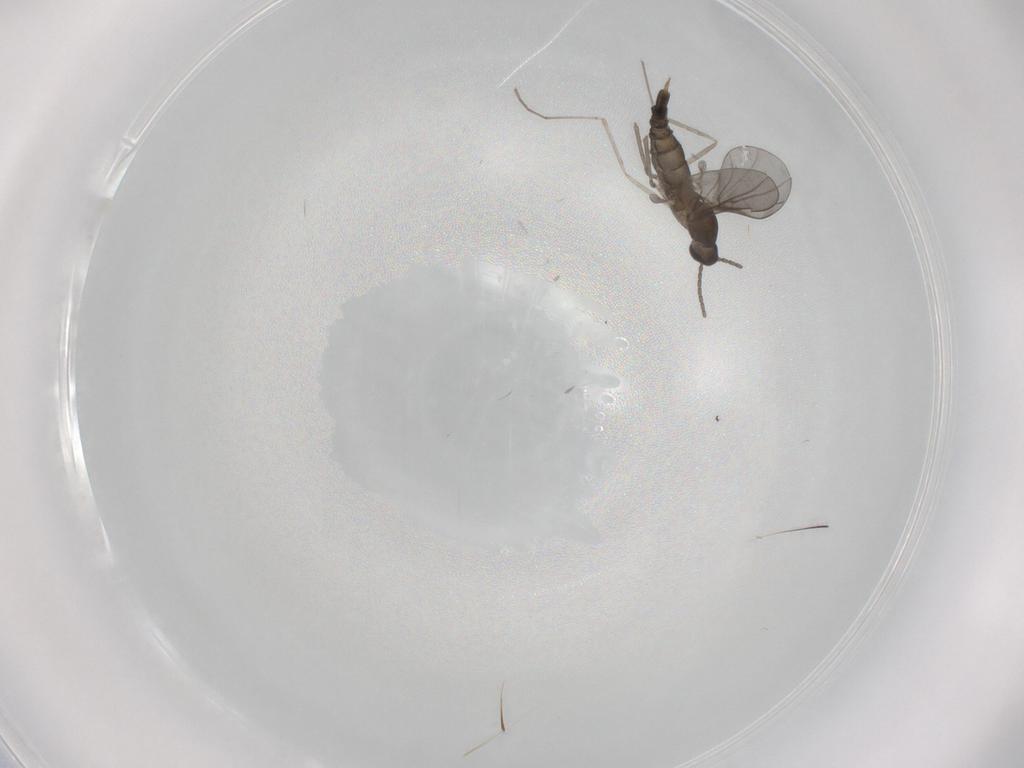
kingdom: Animalia
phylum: Arthropoda
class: Insecta
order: Diptera
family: Cecidomyiidae
